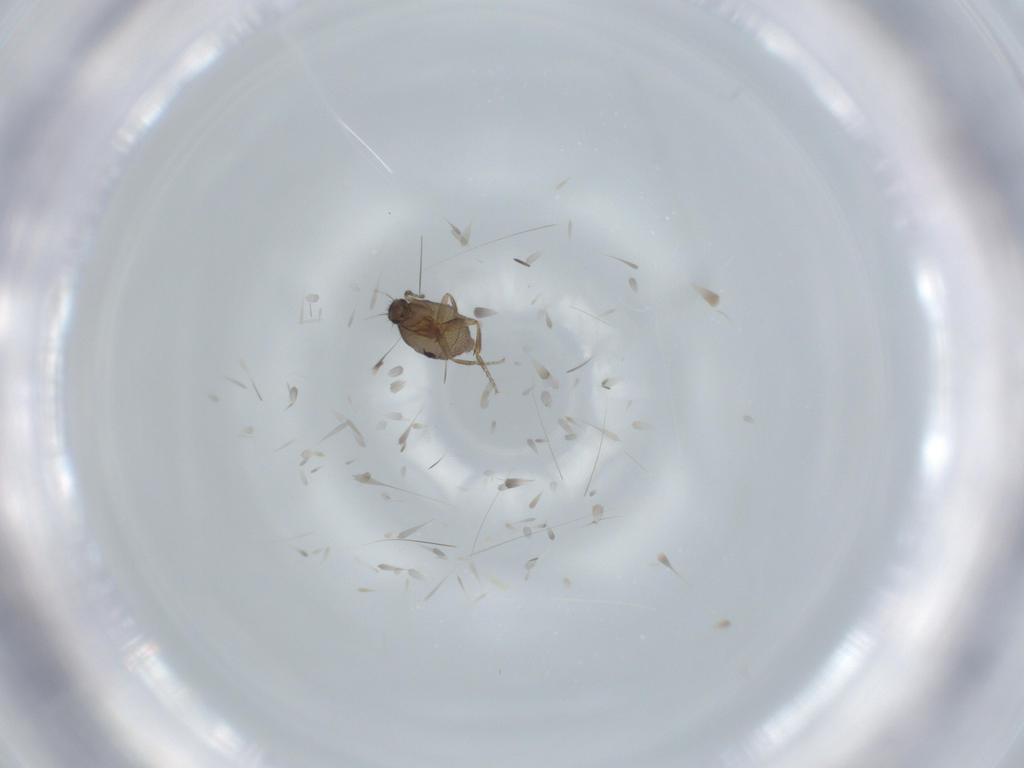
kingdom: Animalia
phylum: Arthropoda
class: Insecta
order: Diptera
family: Phoridae
